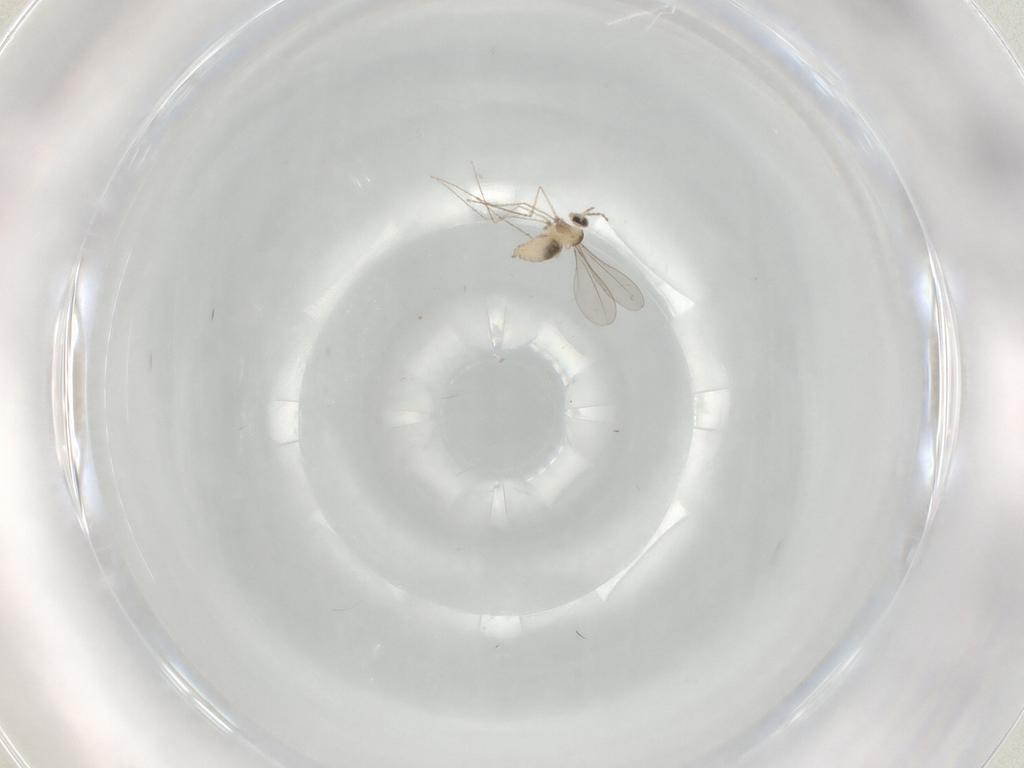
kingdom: Animalia
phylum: Arthropoda
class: Insecta
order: Diptera
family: Cecidomyiidae
